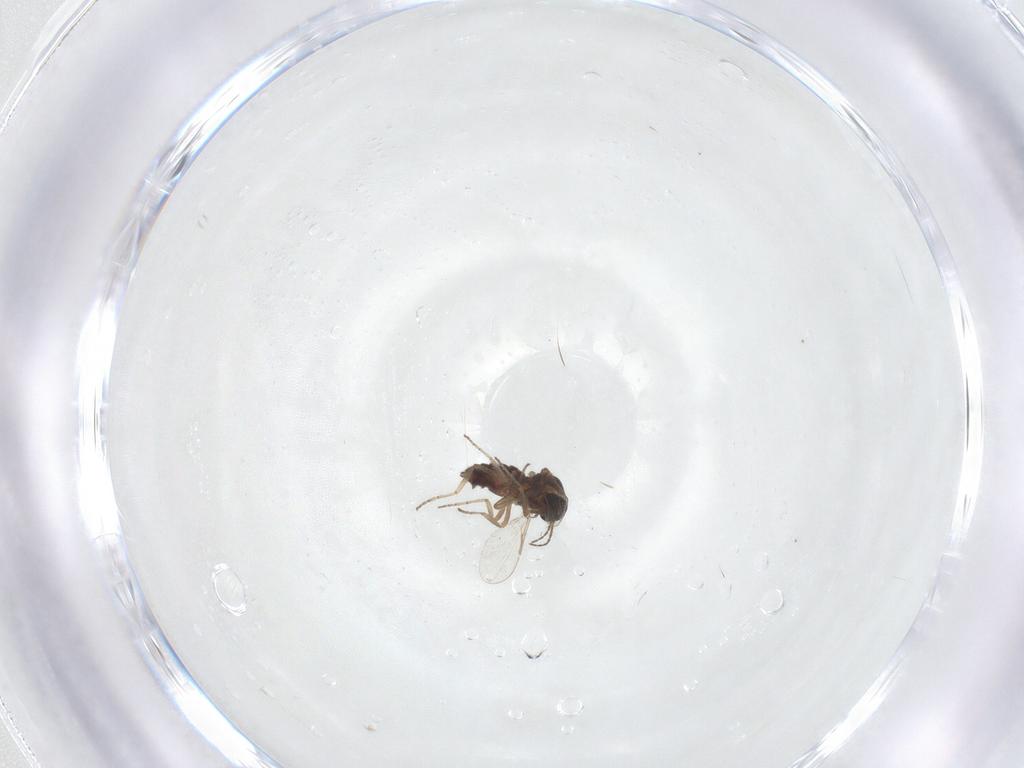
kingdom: Animalia
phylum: Arthropoda
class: Insecta
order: Diptera
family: Ceratopogonidae
